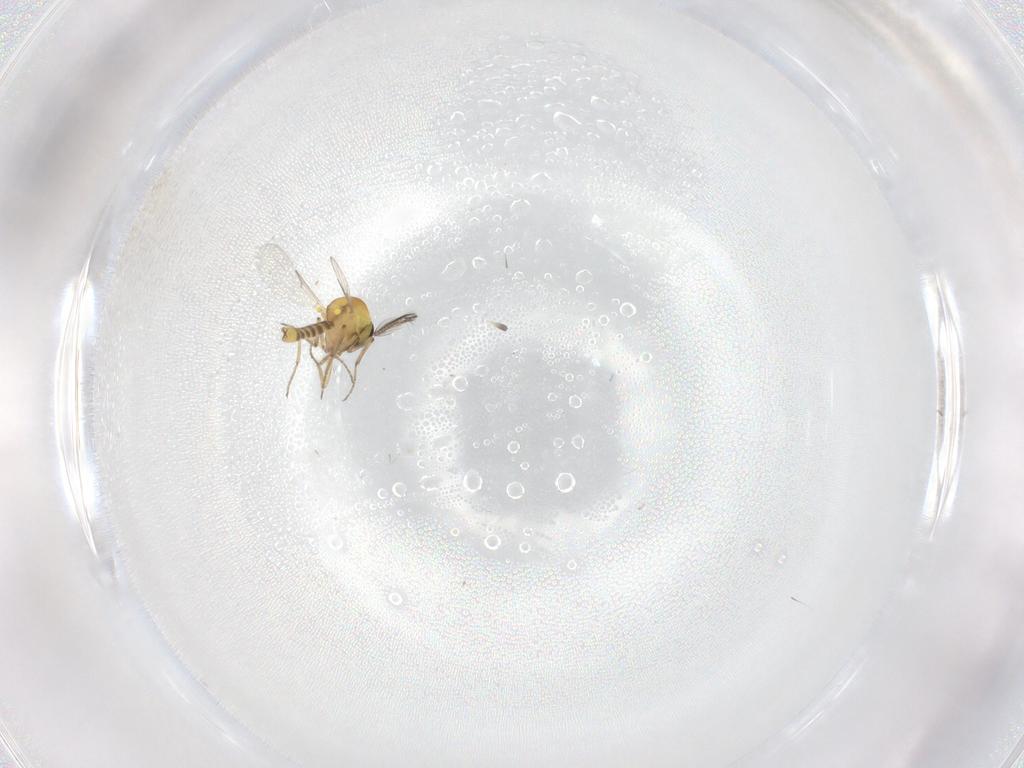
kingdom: Animalia
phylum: Arthropoda
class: Insecta
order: Diptera
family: Ceratopogonidae
